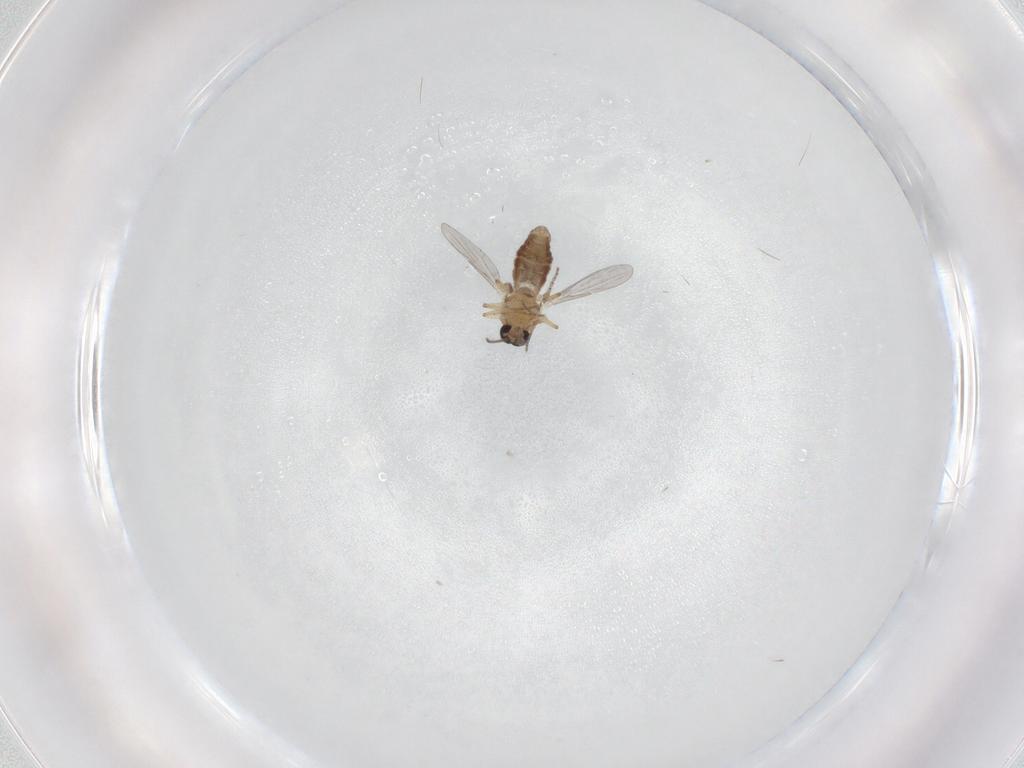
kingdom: Animalia
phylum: Arthropoda
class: Insecta
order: Diptera
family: Ceratopogonidae
